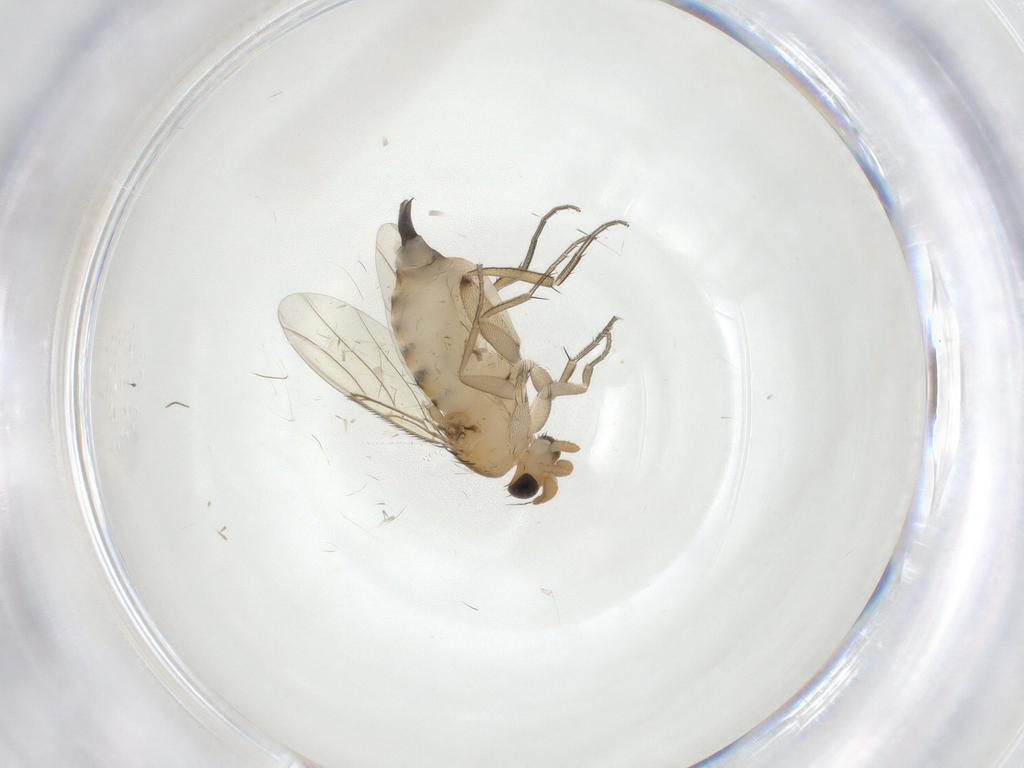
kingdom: Animalia
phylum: Arthropoda
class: Insecta
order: Diptera
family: Phoridae
